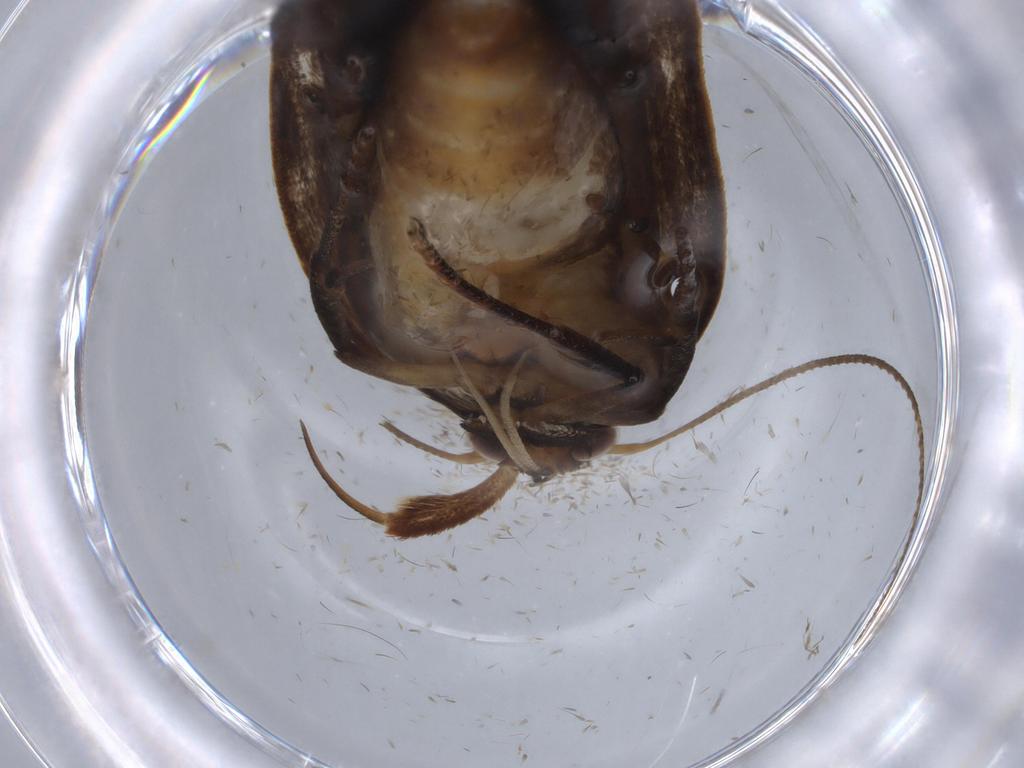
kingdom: Animalia
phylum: Arthropoda
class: Insecta
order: Lepidoptera
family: Gelechiidae
